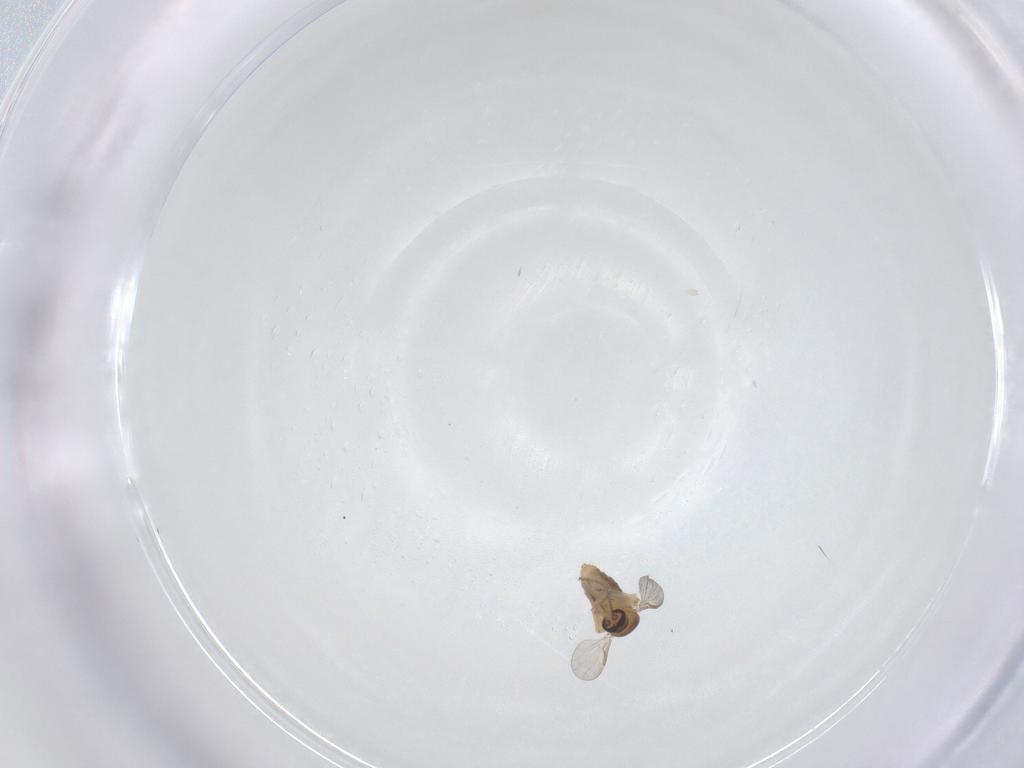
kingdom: Animalia
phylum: Arthropoda
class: Insecta
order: Diptera
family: Ceratopogonidae
